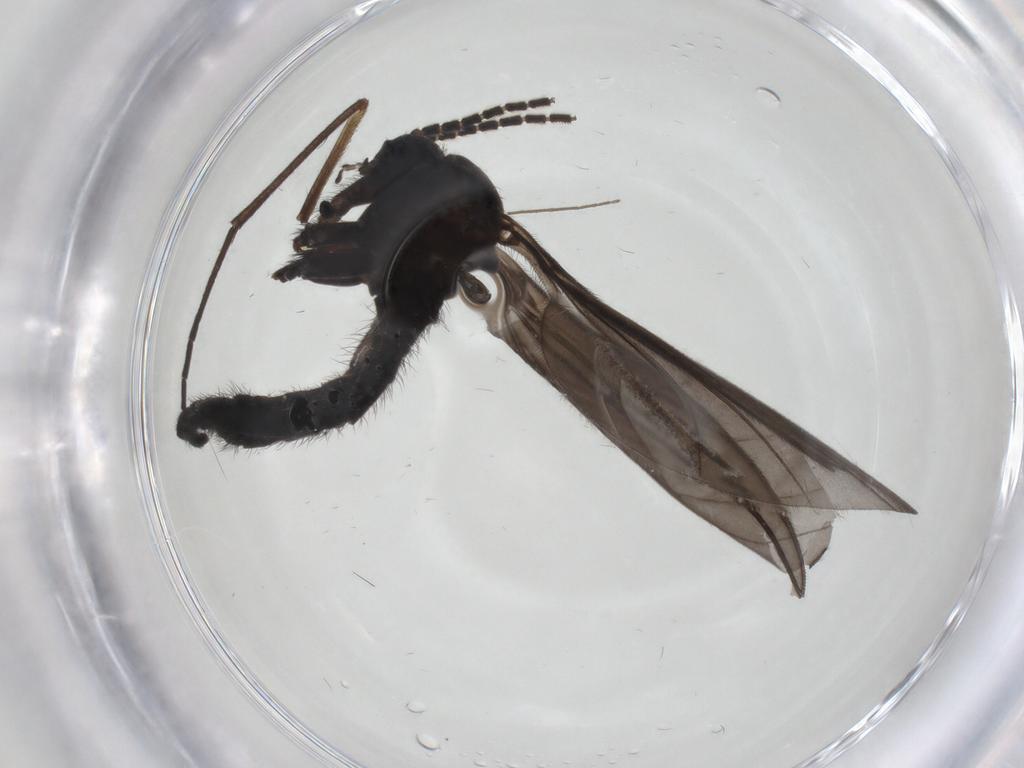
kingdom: Animalia
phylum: Arthropoda
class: Insecta
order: Diptera
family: Sciaridae
